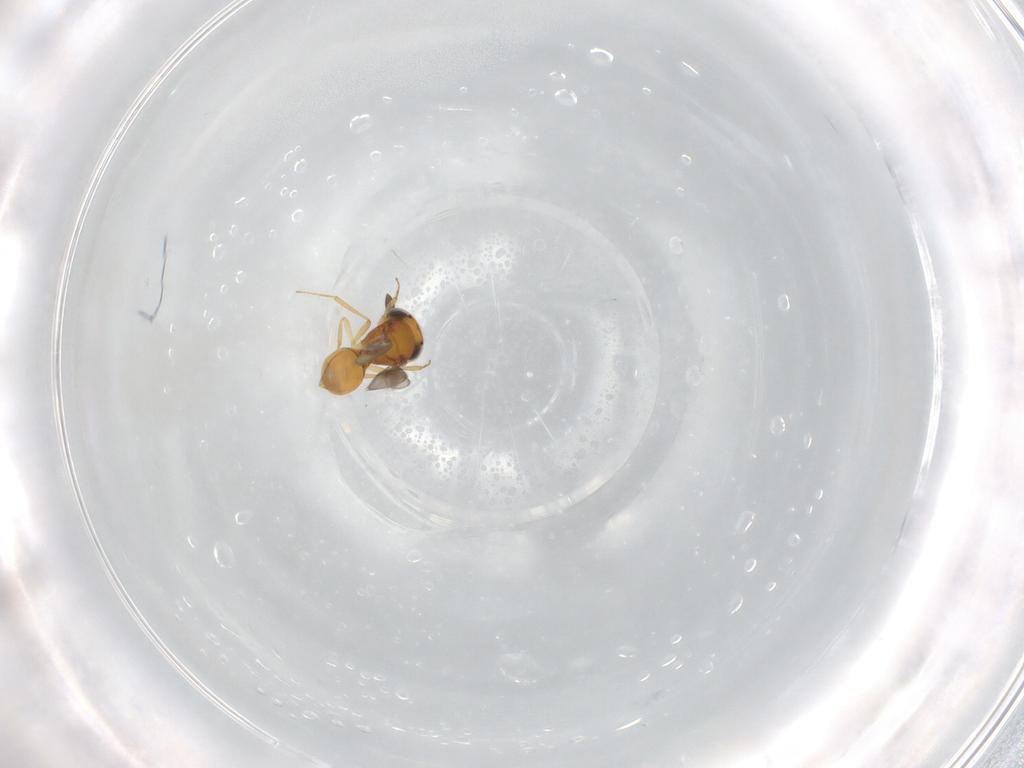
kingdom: Animalia
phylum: Arthropoda
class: Insecta
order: Hymenoptera
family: Scelionidae
